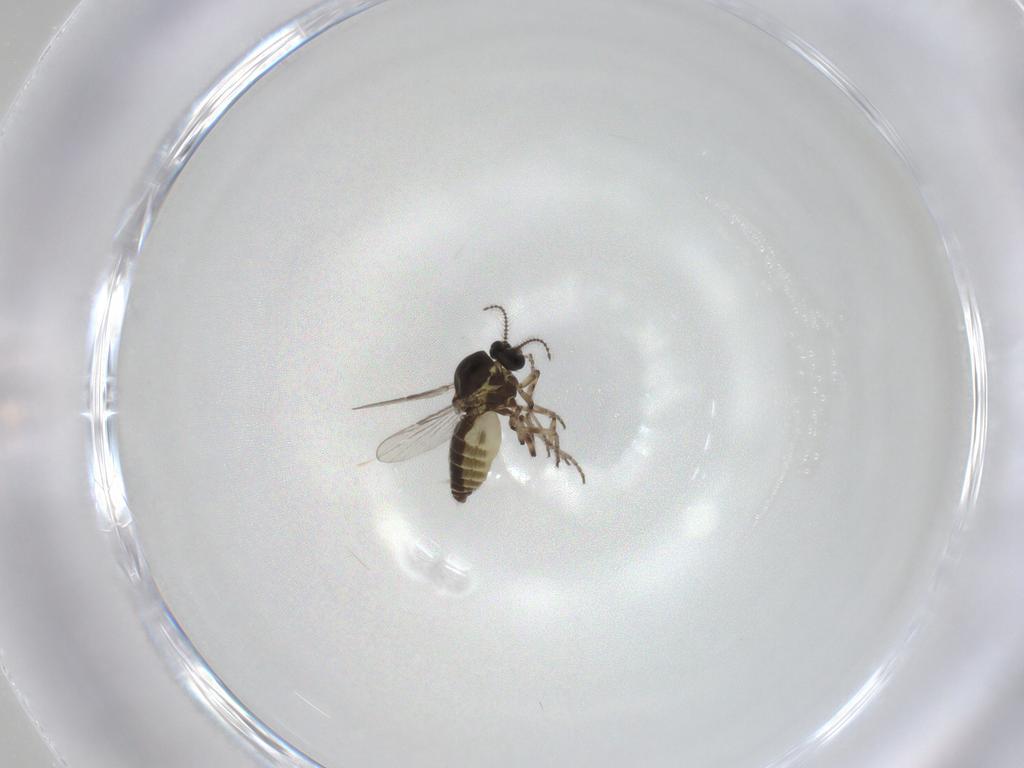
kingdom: Animalia
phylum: Arthropoda
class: Insecta
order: Diptera
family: Ceratopogonidae
